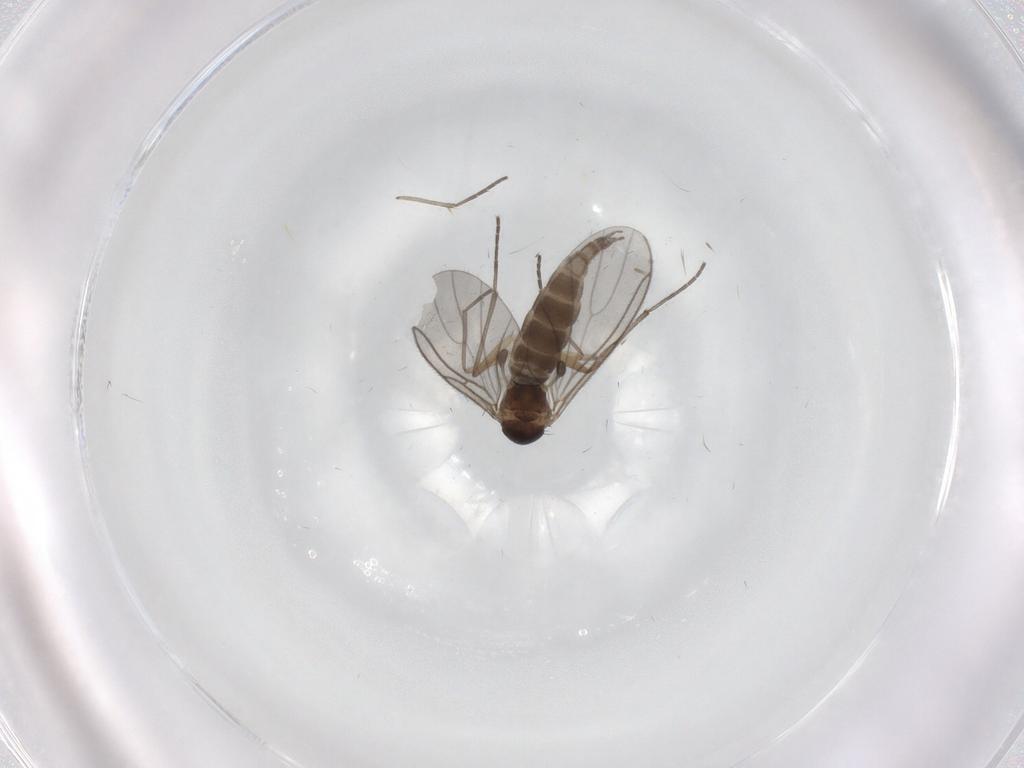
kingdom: Animalia
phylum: Arthropoda
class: Insecta
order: Diptera
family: Sciaridae
